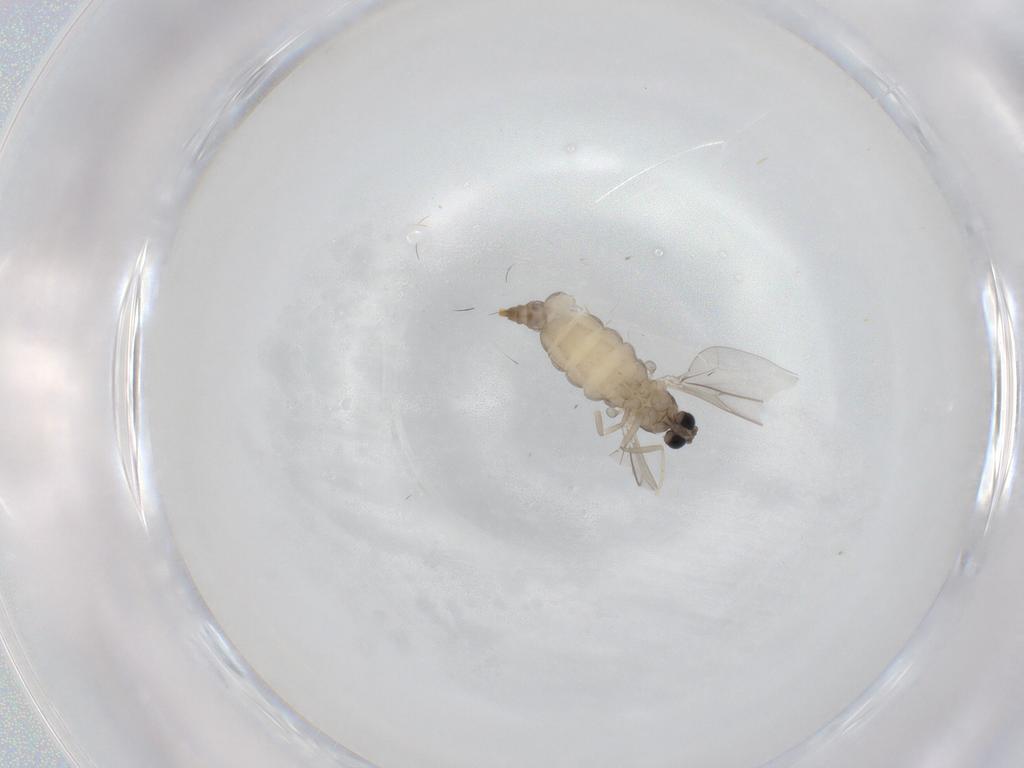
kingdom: Animalia
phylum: Arthropoda
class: Insecta
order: Diptera
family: Cecidomyiidae
